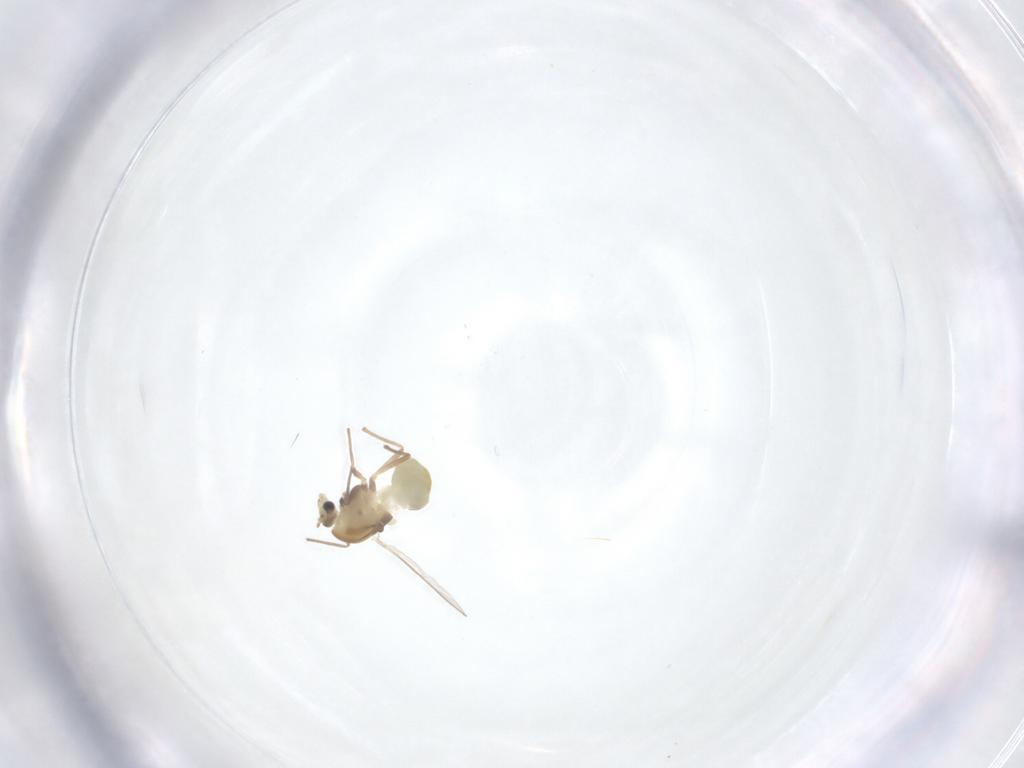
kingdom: Animalia
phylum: Arthropoda
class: Insecta
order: Diptera
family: Chironomidae
